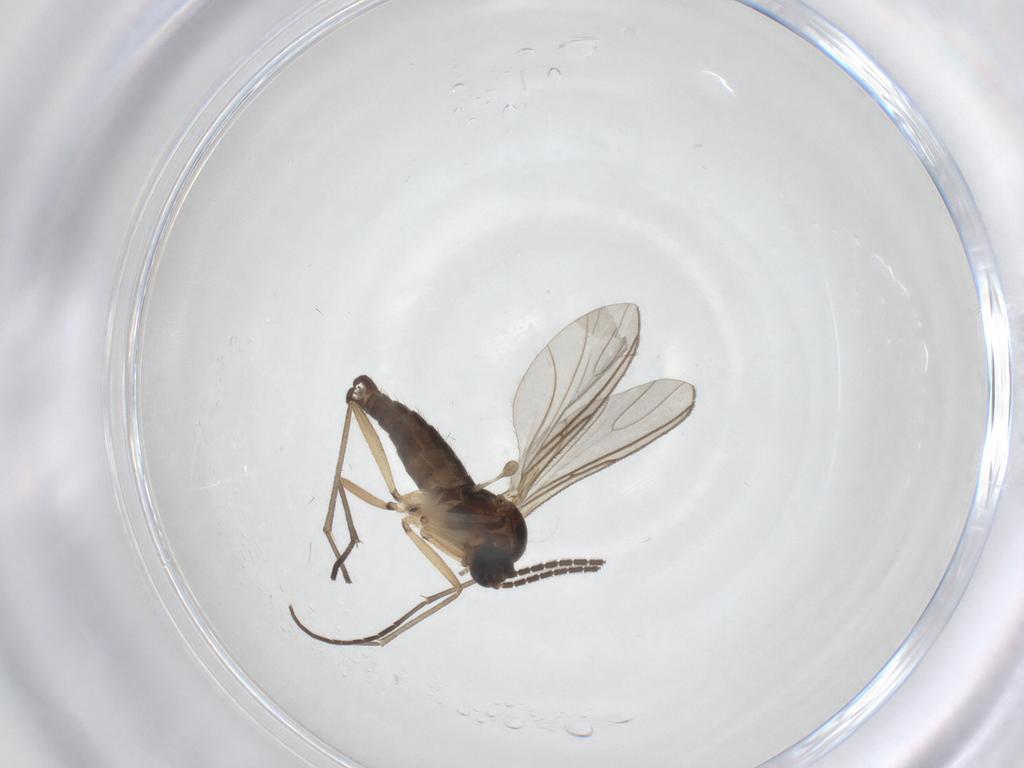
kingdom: Animalia
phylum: Arthropoda
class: Insecta
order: Diptera
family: Sciaridae
